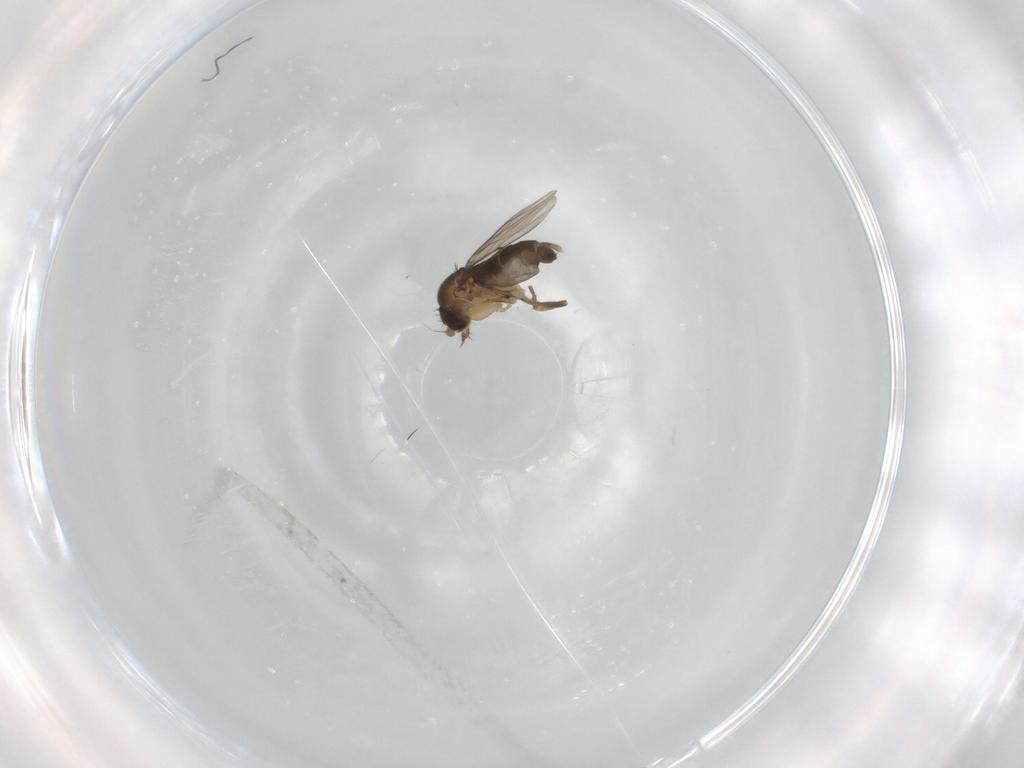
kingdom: Animalia
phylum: Arthropoda
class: Insecta
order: Diptera
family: Phoridae
